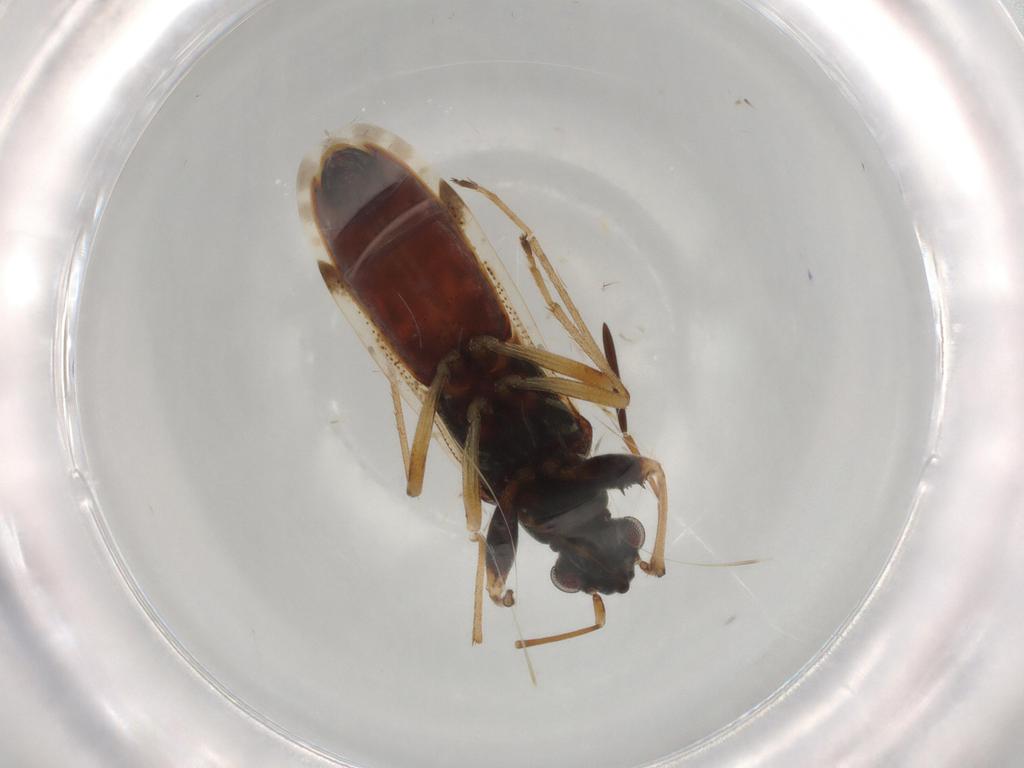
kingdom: Animalia
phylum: Arthropoda
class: Insecta
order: Hemiptera
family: Rhyparochromidae
